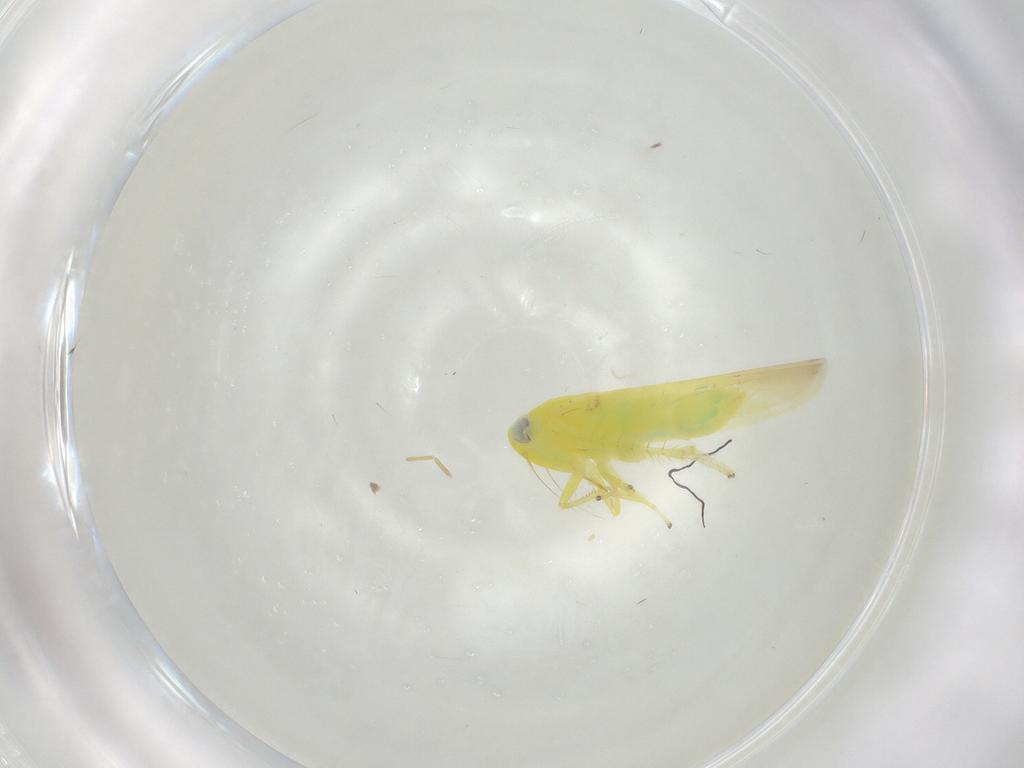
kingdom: Animalia
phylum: Arthropoda
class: Insecta
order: Hemiptera
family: Cicadellidae
